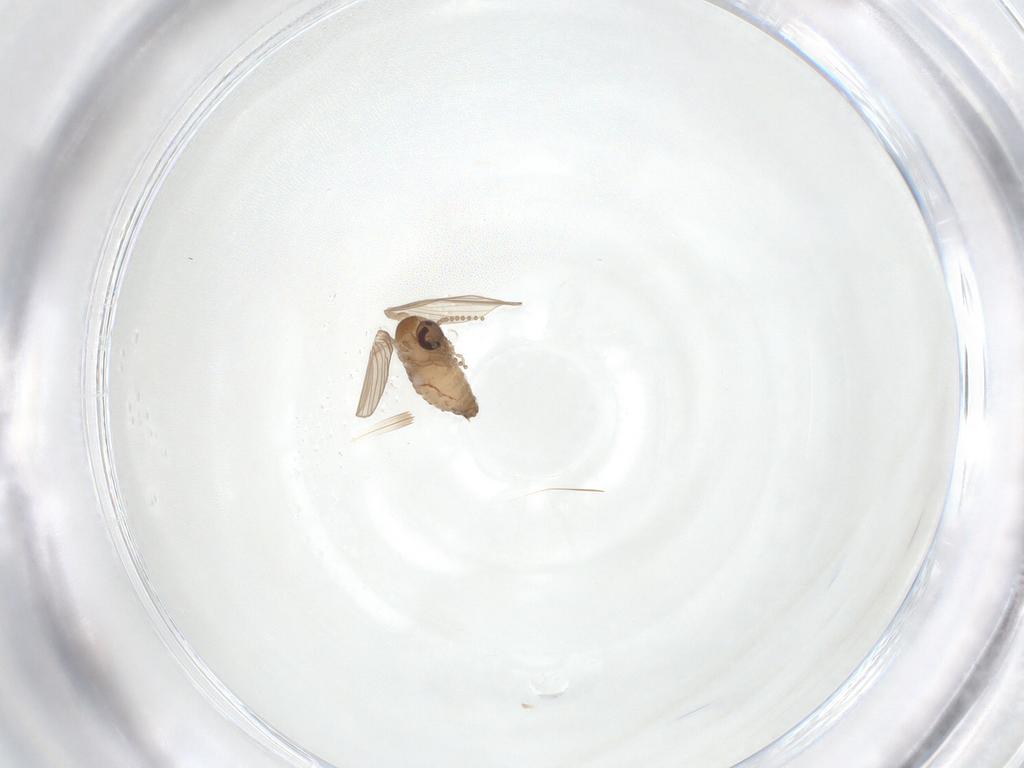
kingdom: Animalia
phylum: Arthropoda
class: Insecta
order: Diptera
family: Psychodidae
